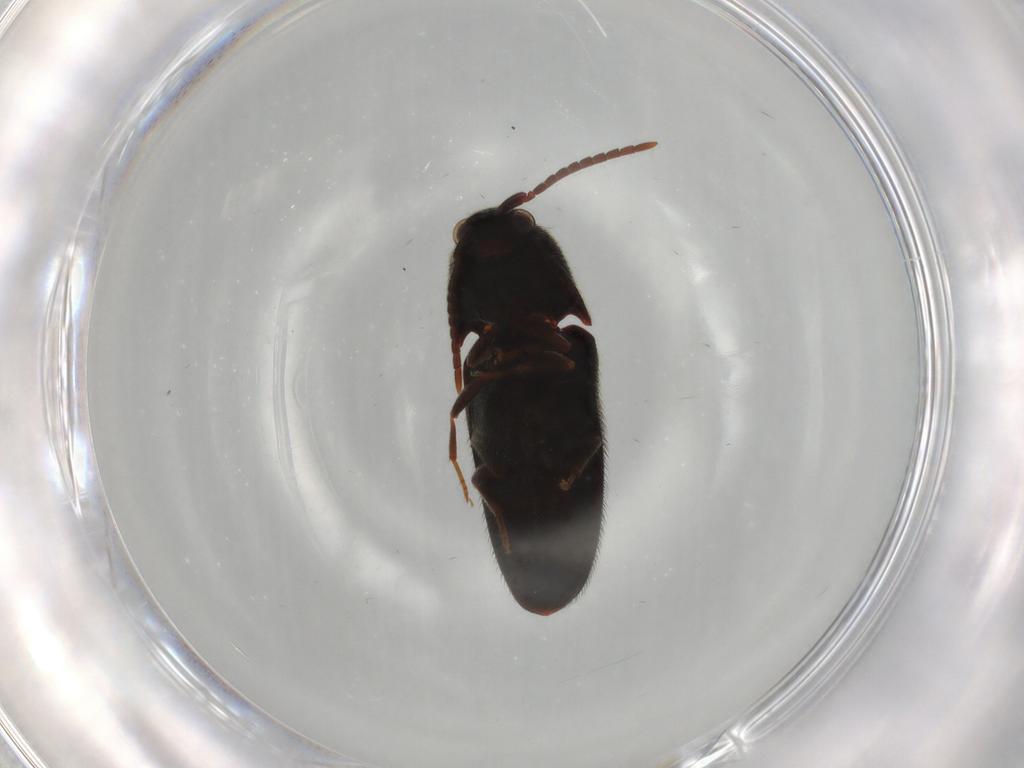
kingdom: Animalia
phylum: Arthropoda
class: Insecta
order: Coleoptera
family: Eucnemidae
